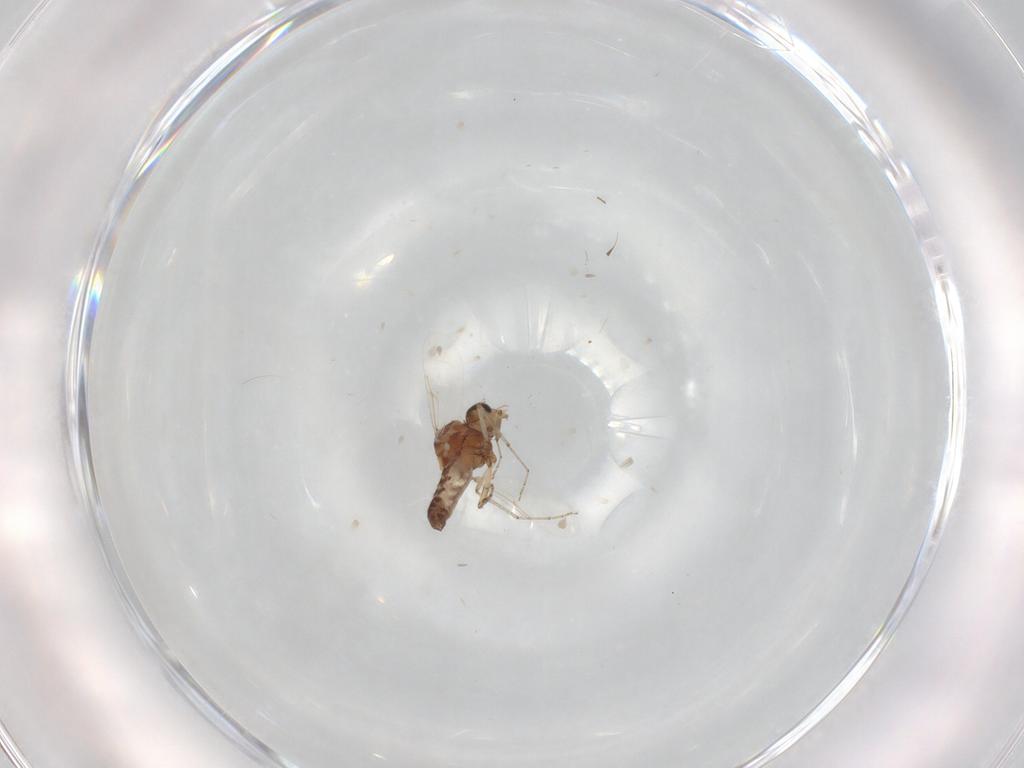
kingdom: Animalia
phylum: Arthropoda
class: Insecta
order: Diptera
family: Ceratopogonidae
